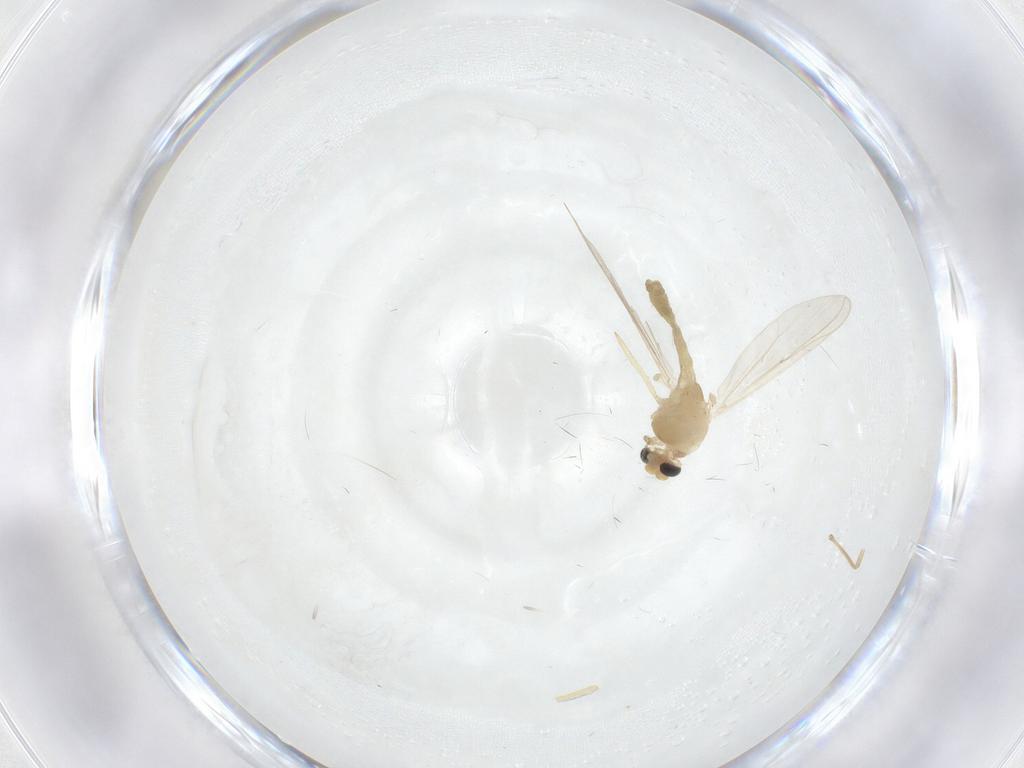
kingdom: Animalia
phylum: Arthropoda
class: Insecta
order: Diptera
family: Chironomidae
